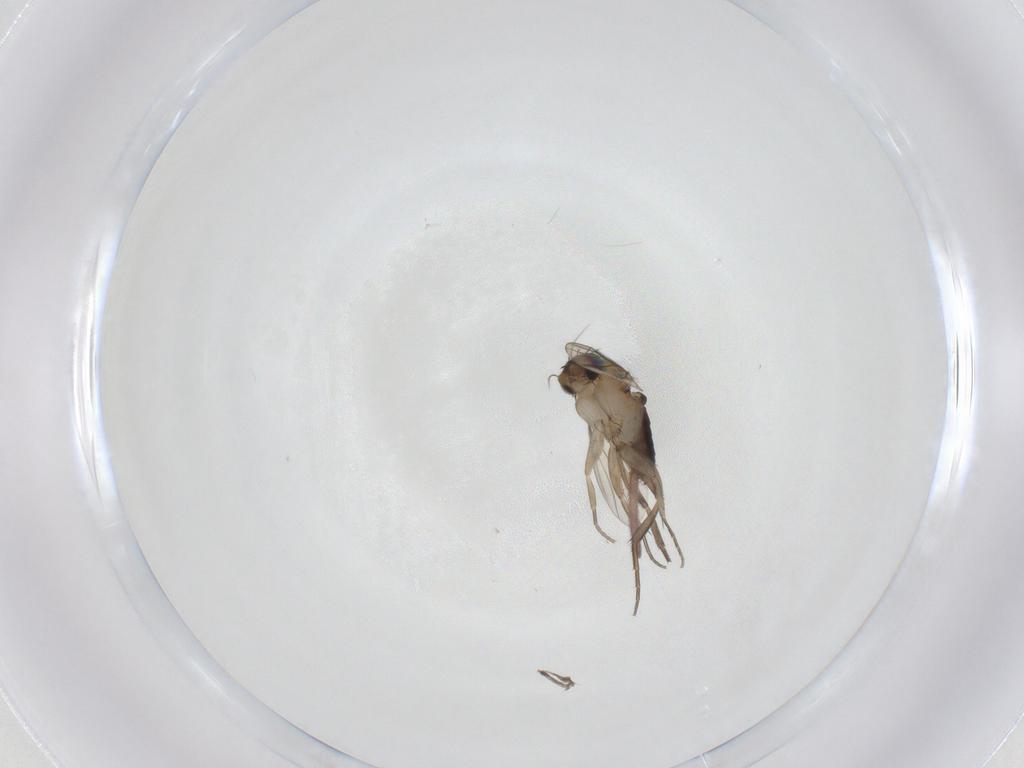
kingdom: Animalia
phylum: Arthropoda
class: Insecta
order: Diptera
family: Phoridae
